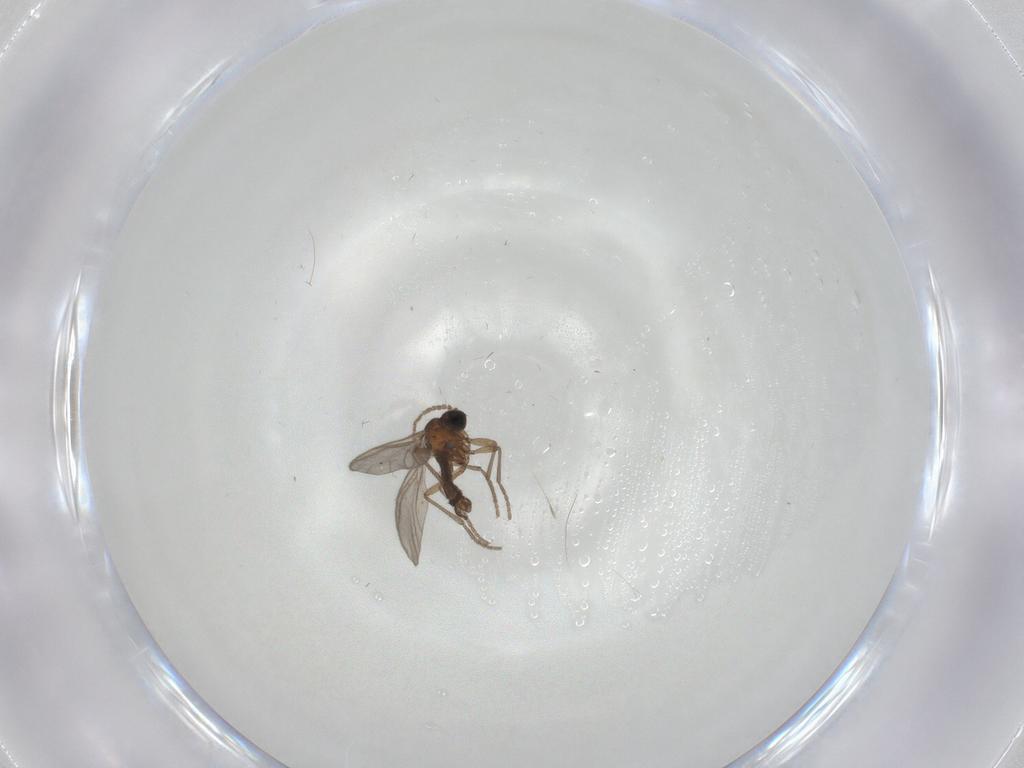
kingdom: Animalia
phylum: Arthropoda
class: Insecta
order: Diptera
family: Sciaridae
